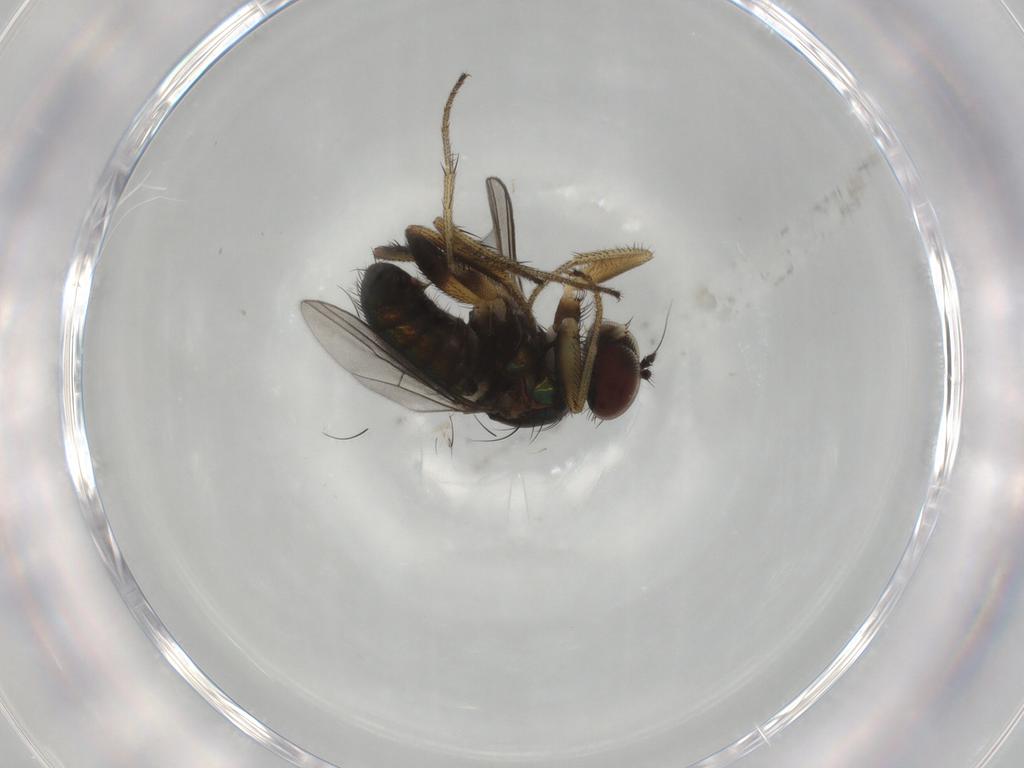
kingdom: Animalia
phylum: Arthropoda
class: Insecta
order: Diptera
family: Dolichopodidae
